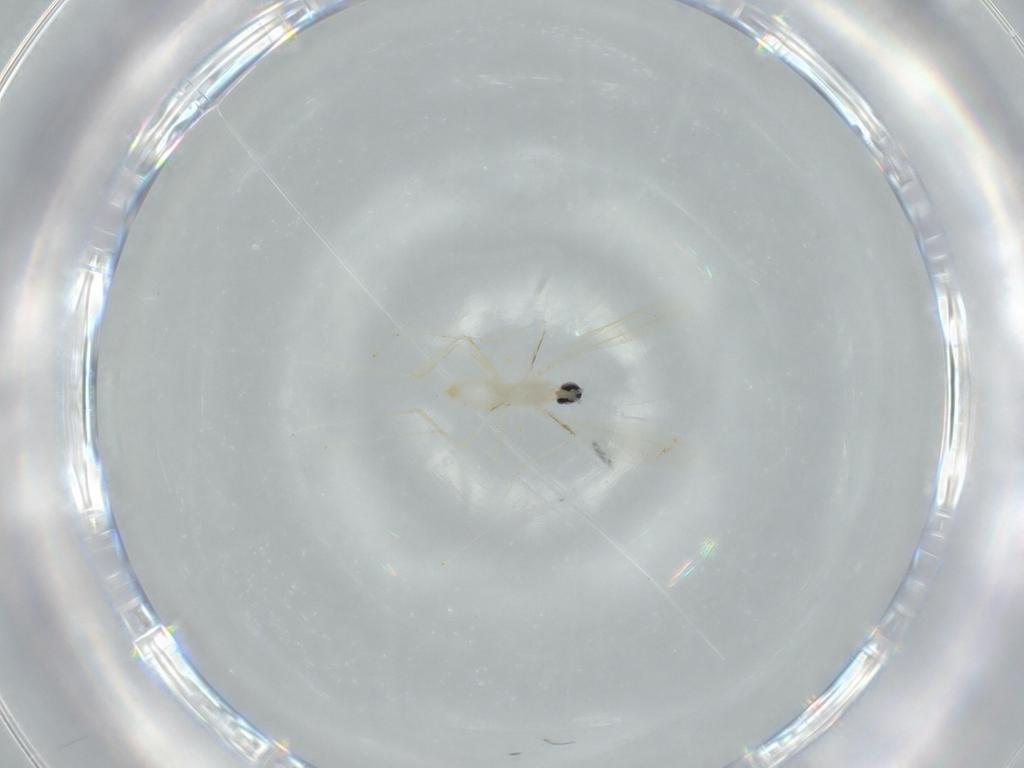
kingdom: Animalia
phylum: Arthropoda
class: Insecta
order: Diptera
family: Cecidomyiidae
